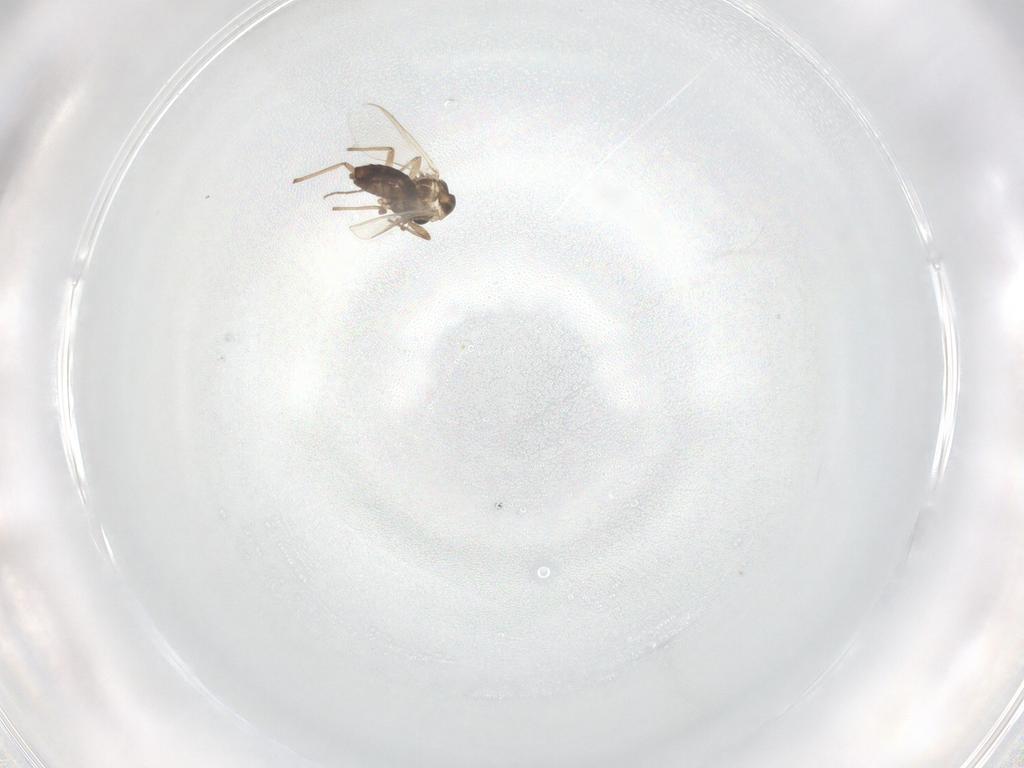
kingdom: Animalia
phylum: Arthropoda
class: Insecta
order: Diptera
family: Chironomidae
